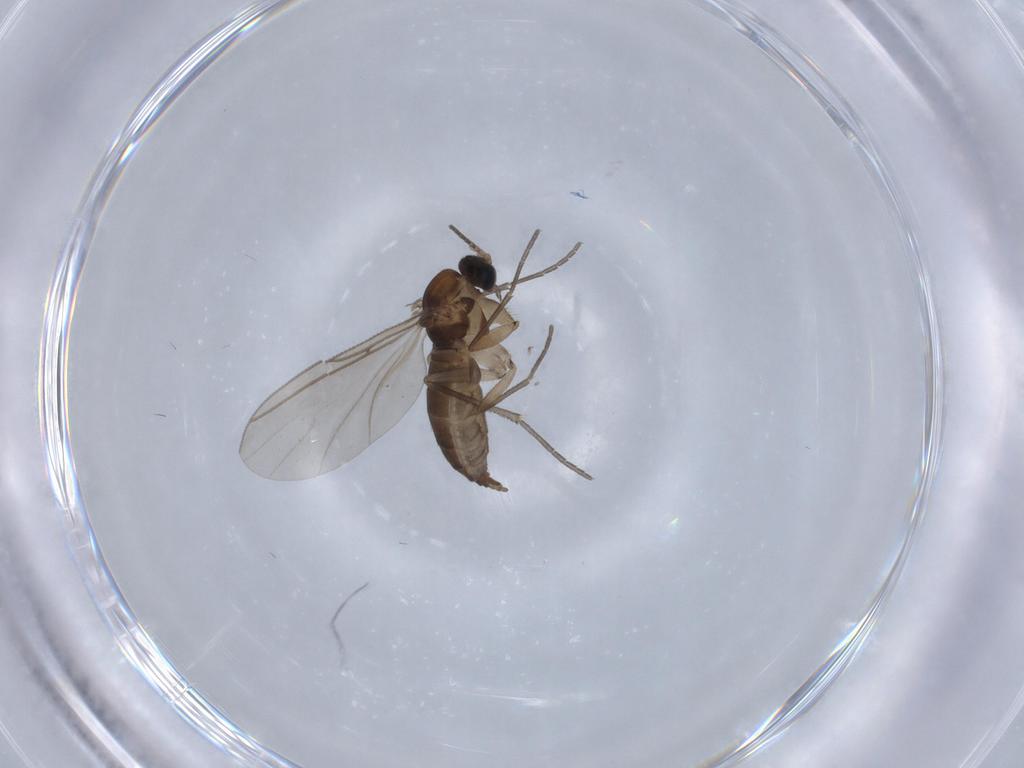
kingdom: Animalia
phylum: Arthropoda
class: Insecta
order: Diptera
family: Sciaridae
